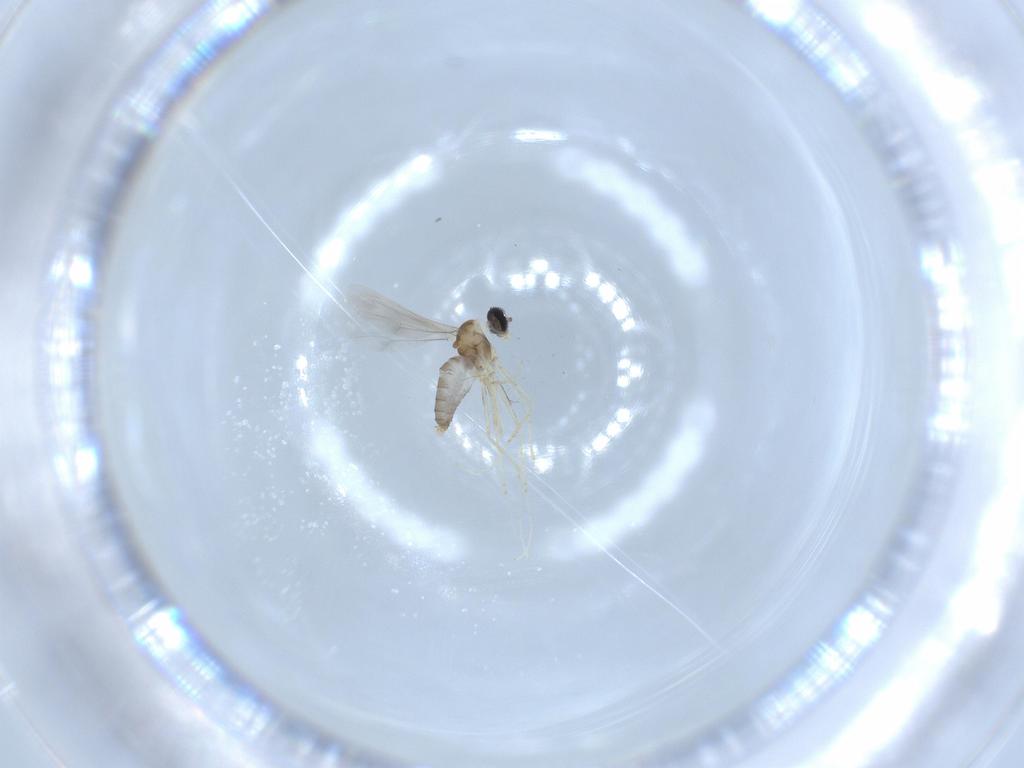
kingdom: Animalia
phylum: Arthropoda
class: Insecta
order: Diptera
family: Cecidomyiidae
